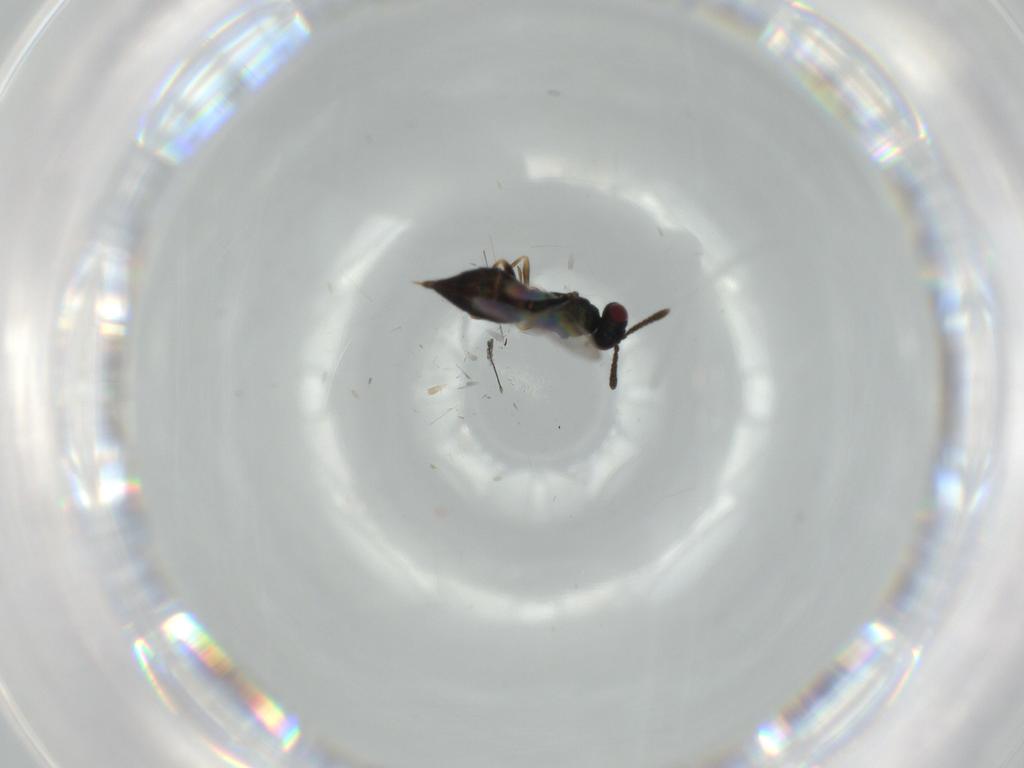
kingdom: Animalia
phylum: Arthropoda
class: Insecta
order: Hymenoptera
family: Pteromalidae
